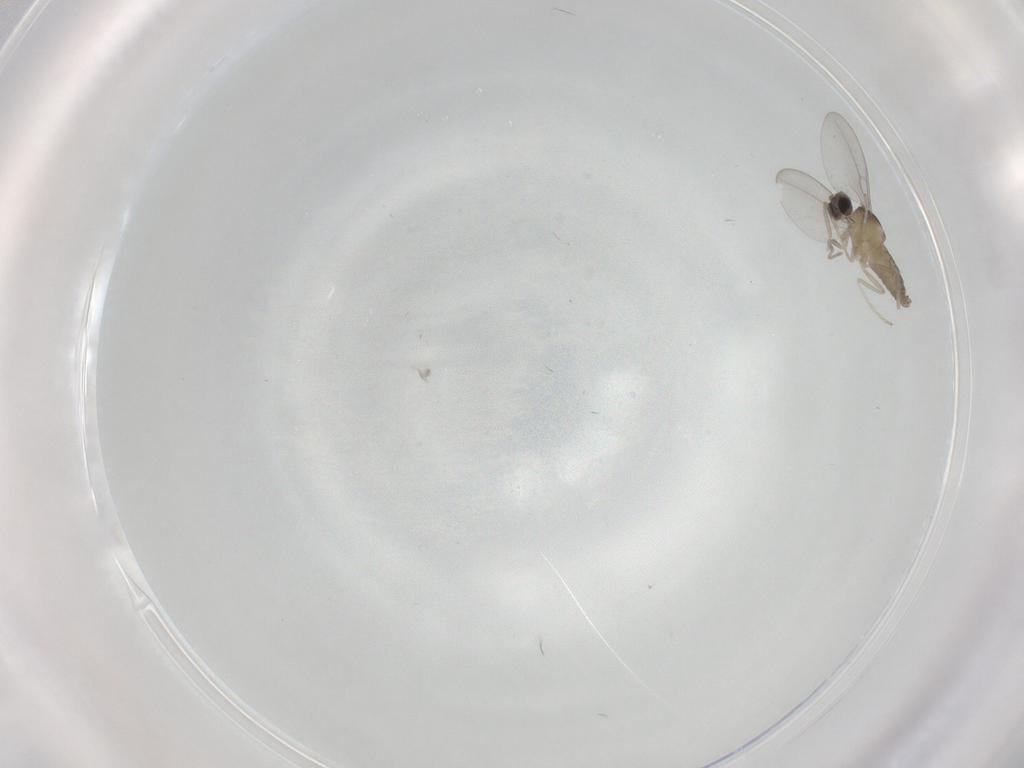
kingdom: Animalia
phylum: Arthropoda
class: Insecta
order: Diptera
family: Cecidomyiidae
